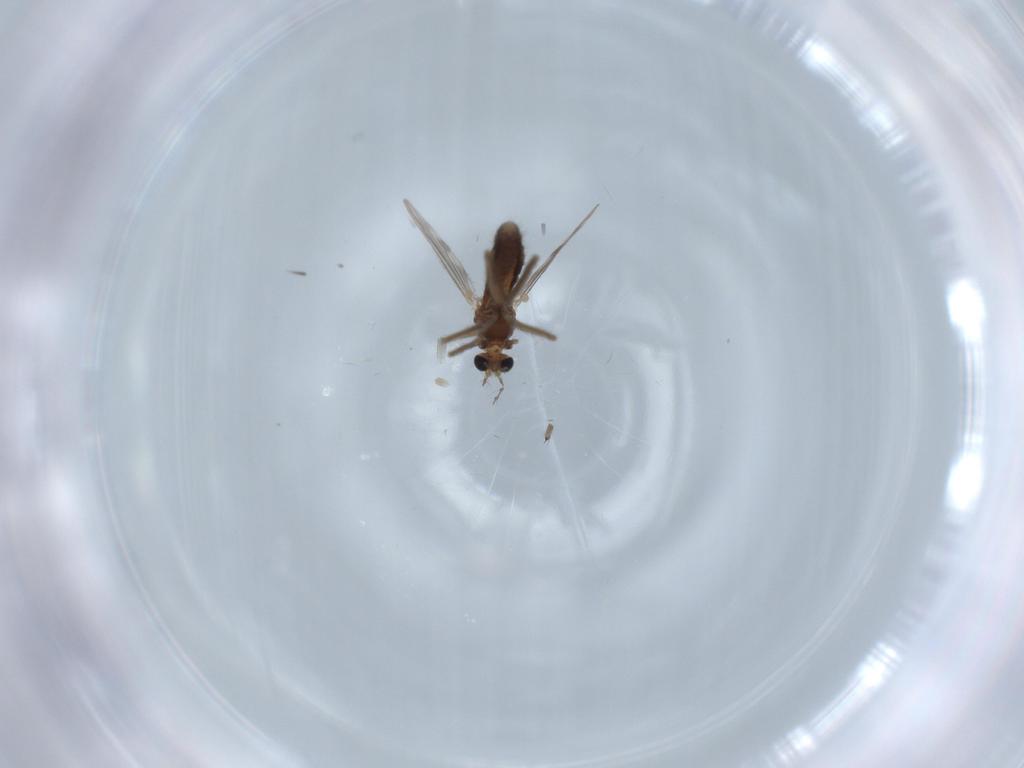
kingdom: Animalia
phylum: Arthropoda
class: Insecta
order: Diptera
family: Chironomidae
